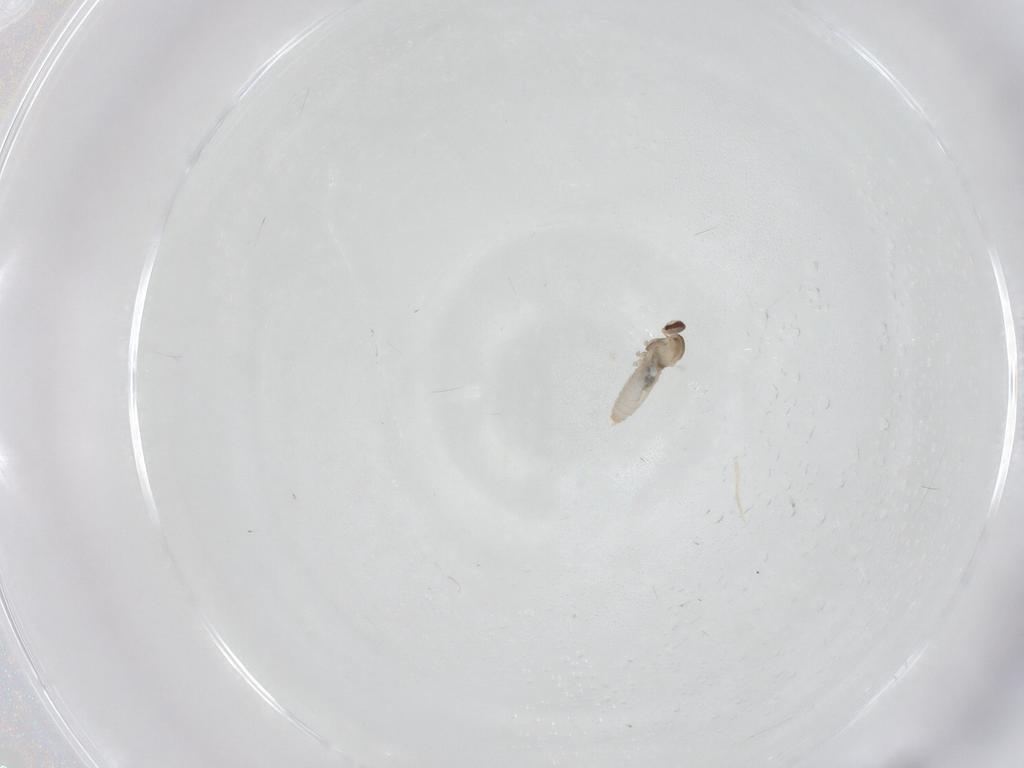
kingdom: Animalia
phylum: Arthropoda
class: Insecta
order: Diptera
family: Cecidomyiidae
